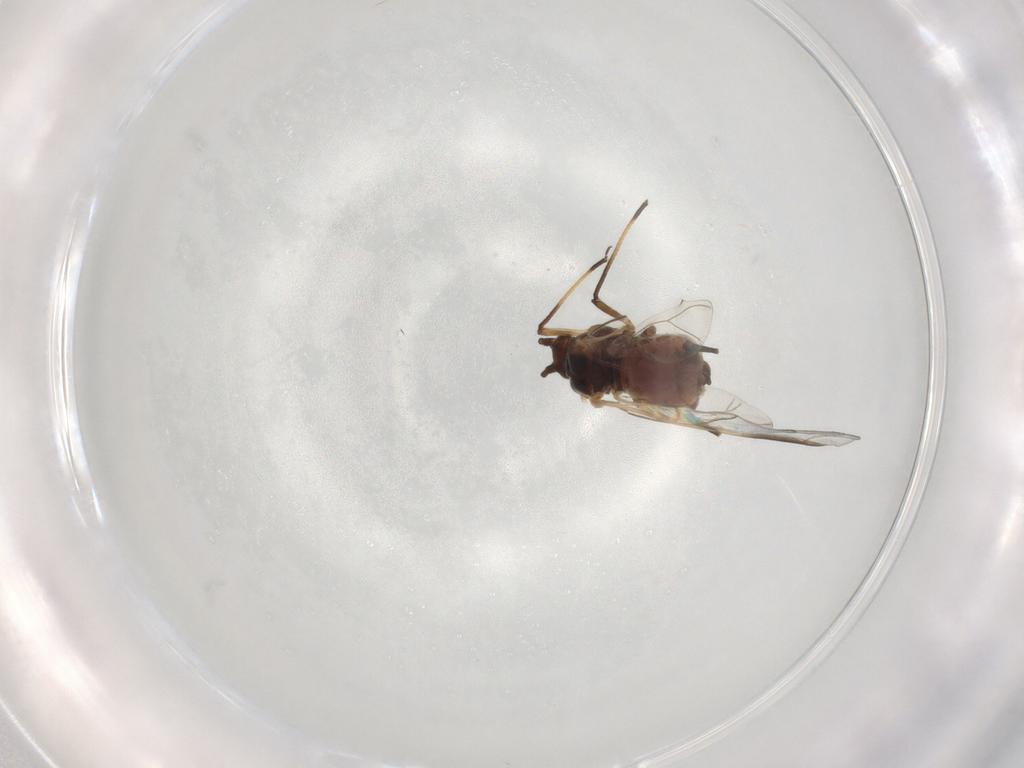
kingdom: Animalia
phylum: Arthropoda
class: Insecta
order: Hemiptera
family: Aphididae
